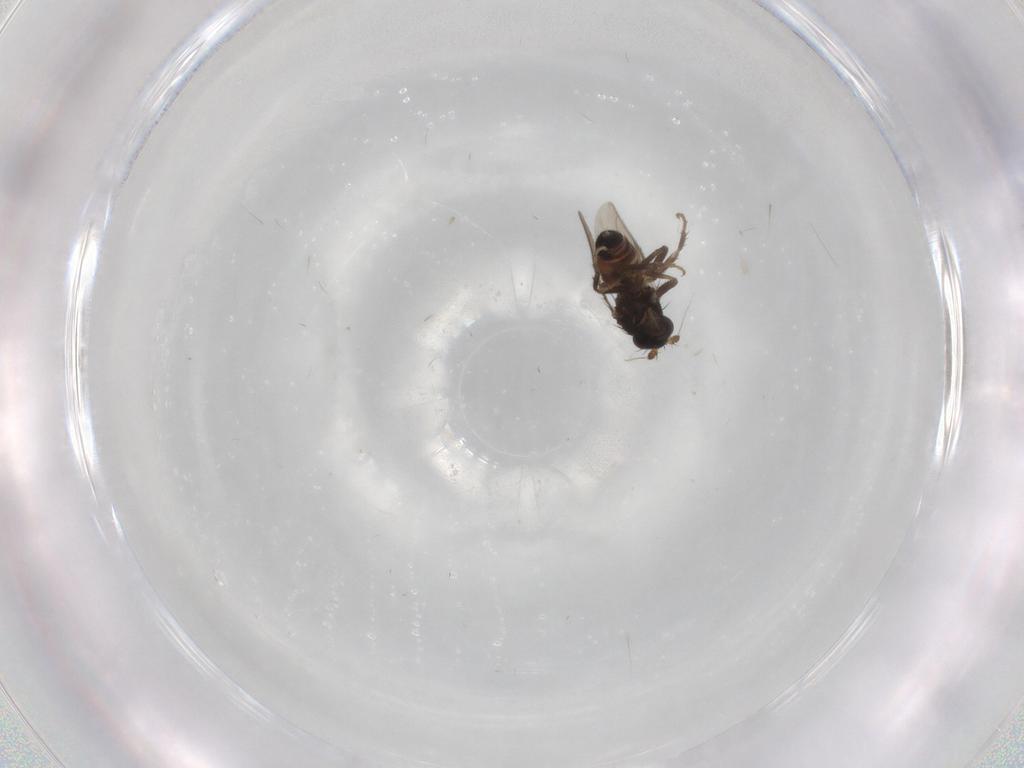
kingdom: Animalia
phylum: Arthropoda
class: Insecta
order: Diptera
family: Sphaeroceridae
